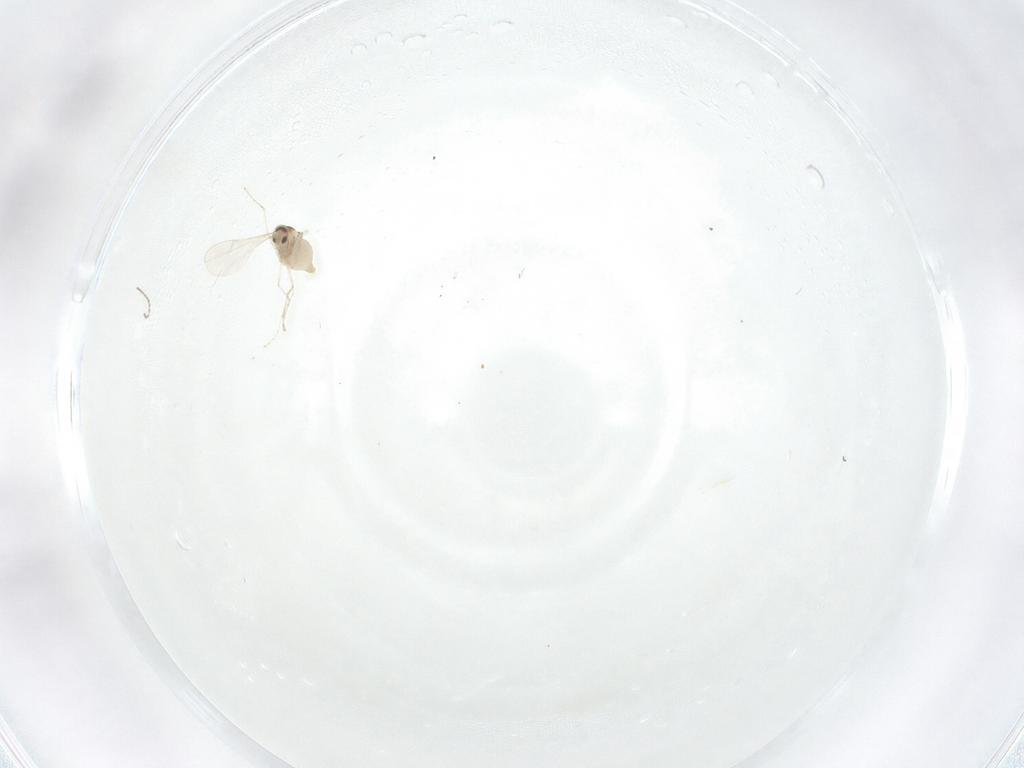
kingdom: Animalia
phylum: Arthropoda
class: Insecta
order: Diptera
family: Cecidomyiidae
